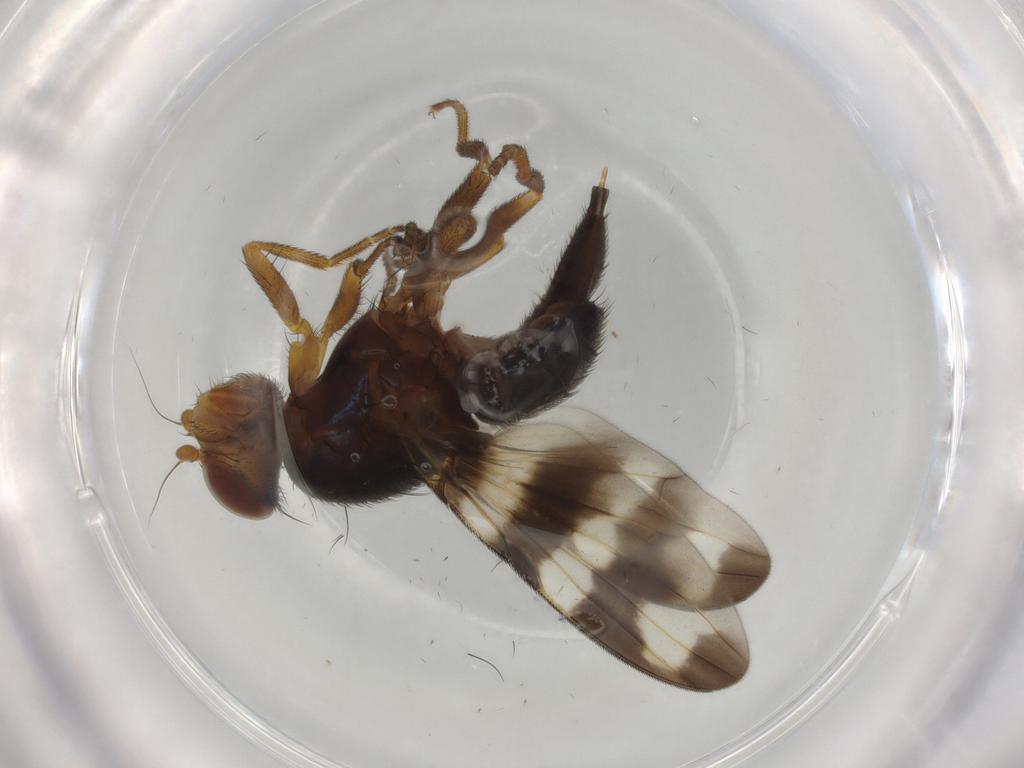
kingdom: Animalia
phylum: Arthropoda
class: Insecta
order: Diptera
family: Ulidiidae
